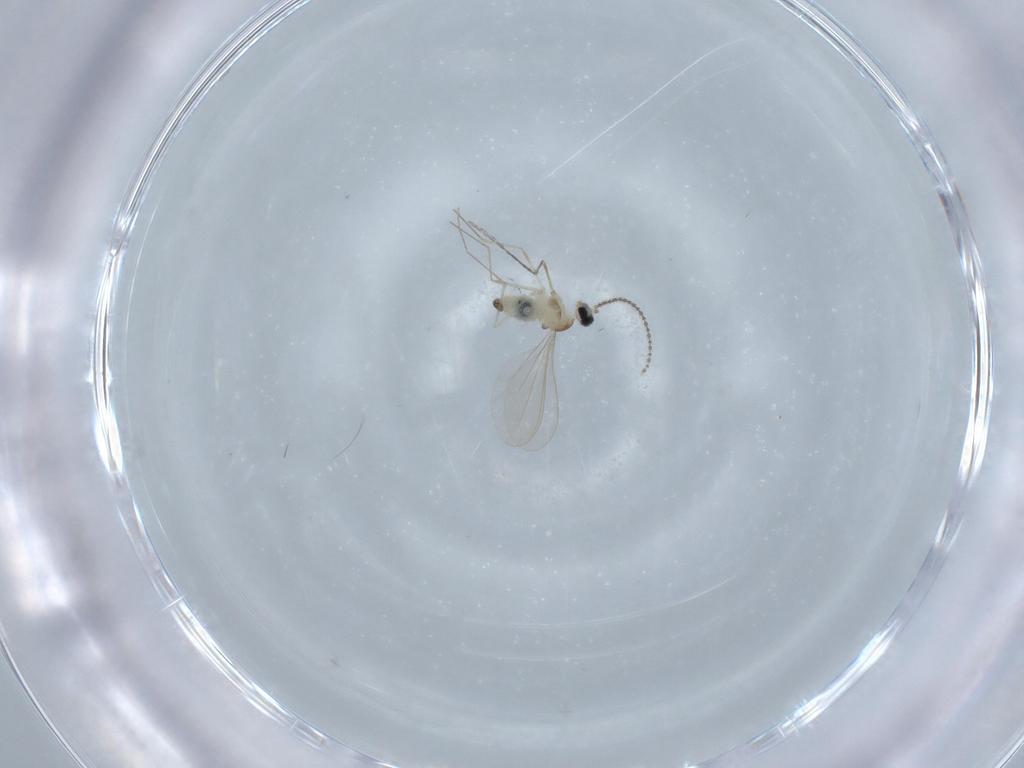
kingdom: Animalia
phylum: Arthropoda
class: Insecta
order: Diptera
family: Cecidomyiidae
